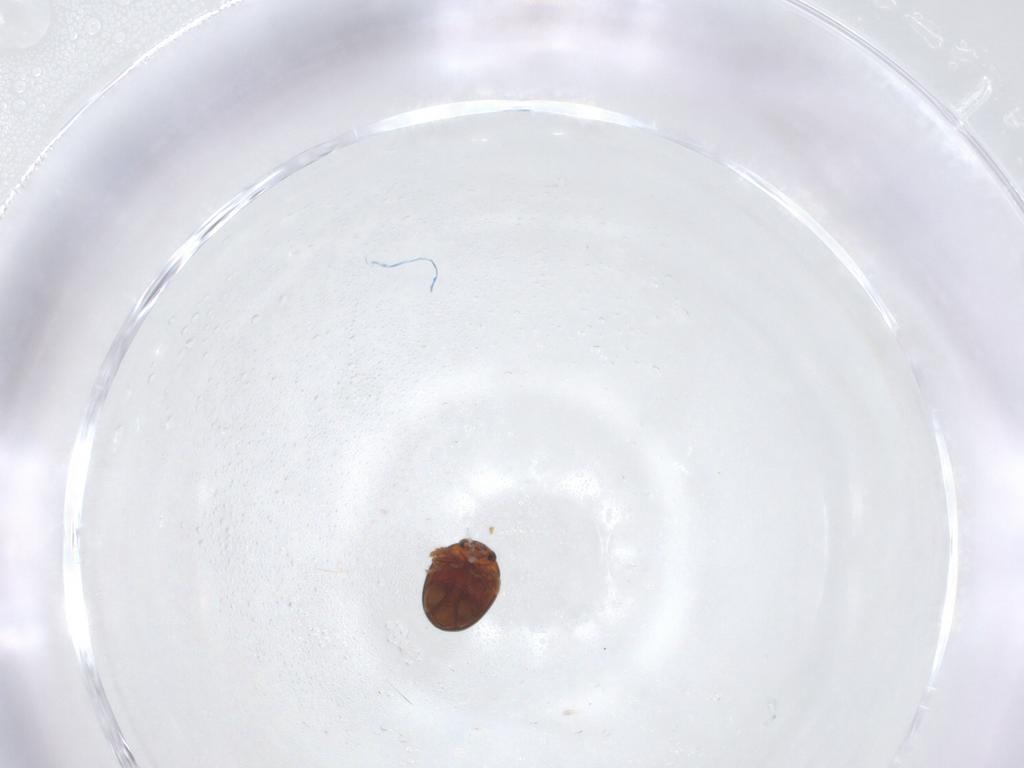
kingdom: Animalia
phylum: Arthropoda
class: Insecta
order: Coleoptera
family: Chrysomelidae
